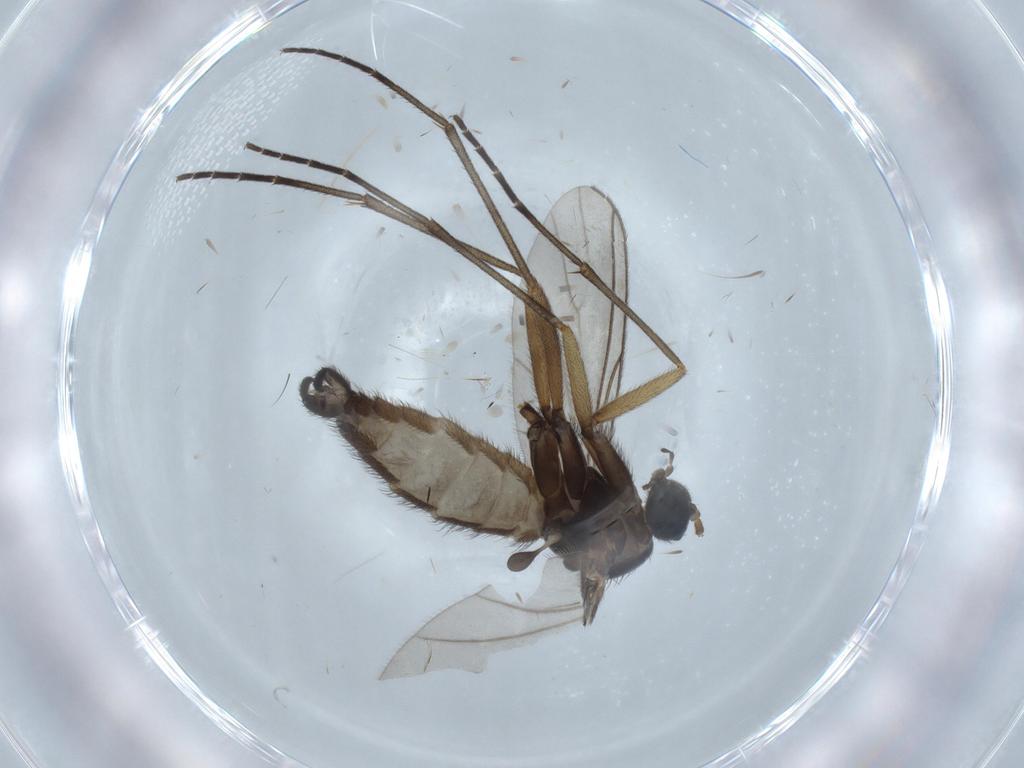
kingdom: Animalia
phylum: Arthropoda
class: Insecta
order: Diptera
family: Sciaridae
